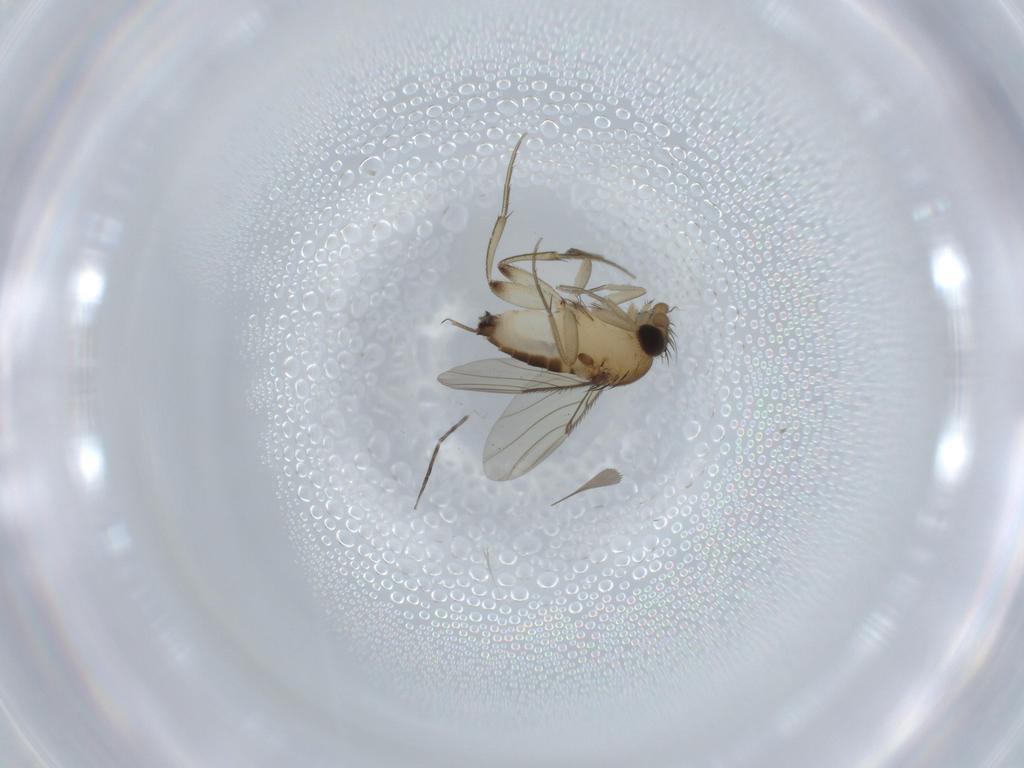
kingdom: Animalia
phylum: Arthropoda
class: Insecta
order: Diptera
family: Phoridae
